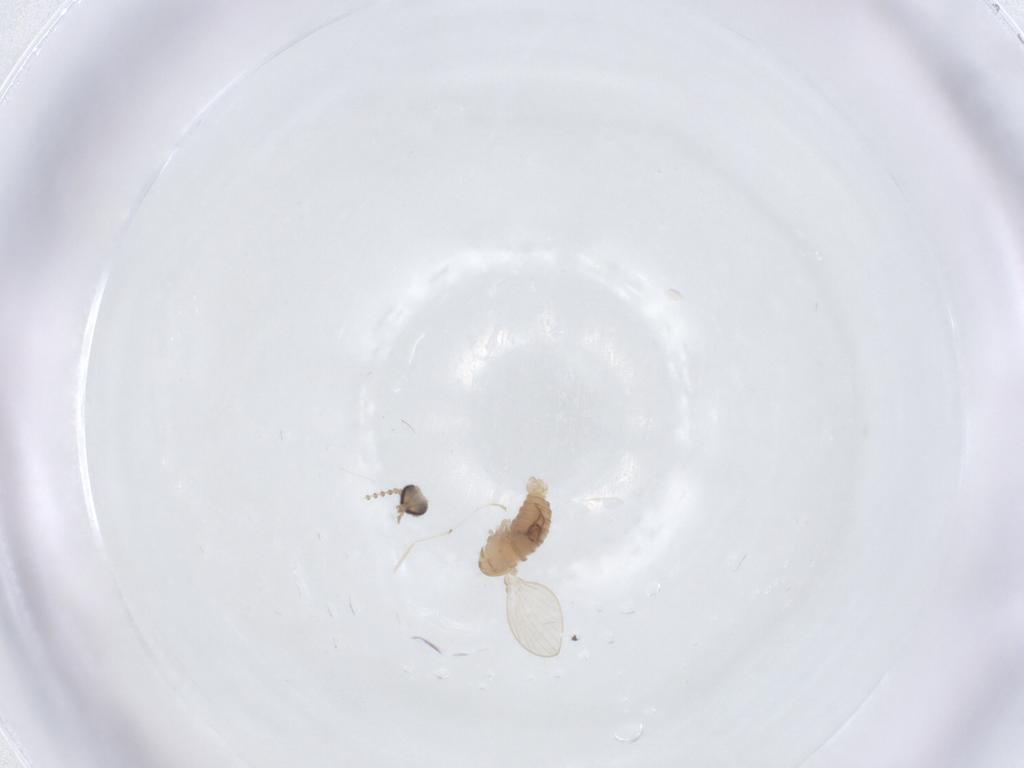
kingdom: Animalia
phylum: Arthropoda
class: Insecta
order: Diptera
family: Psychodidae
